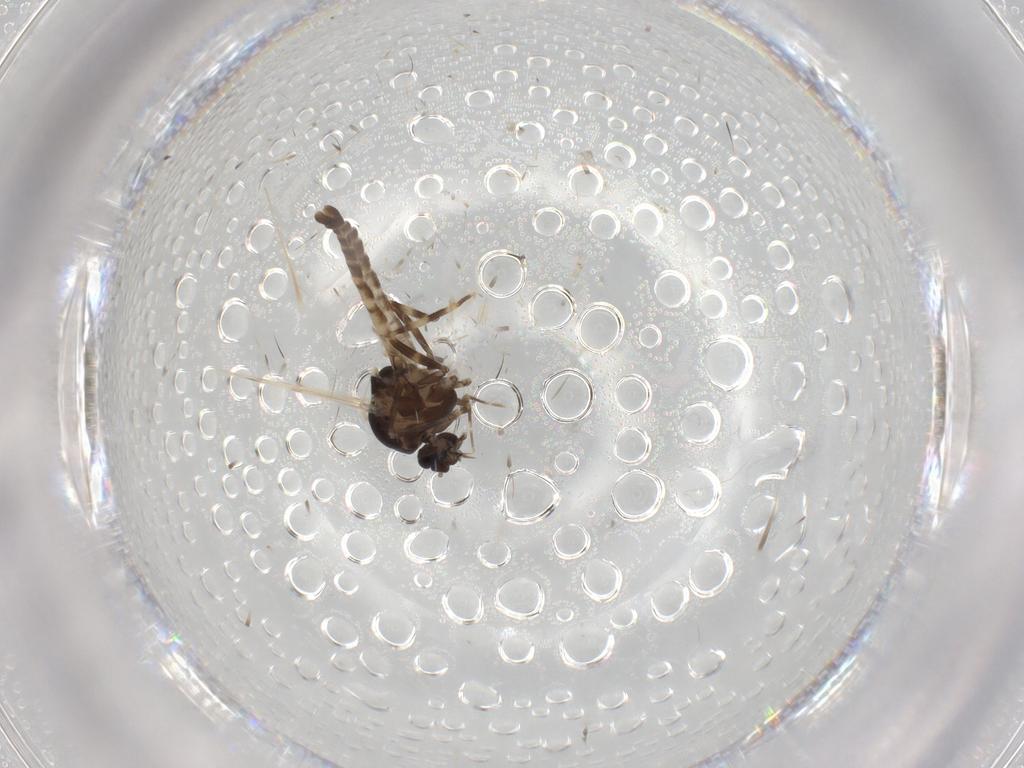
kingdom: Animalia
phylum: Arthropoda
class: Insecta
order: Diptera
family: Ceratopogonidae
